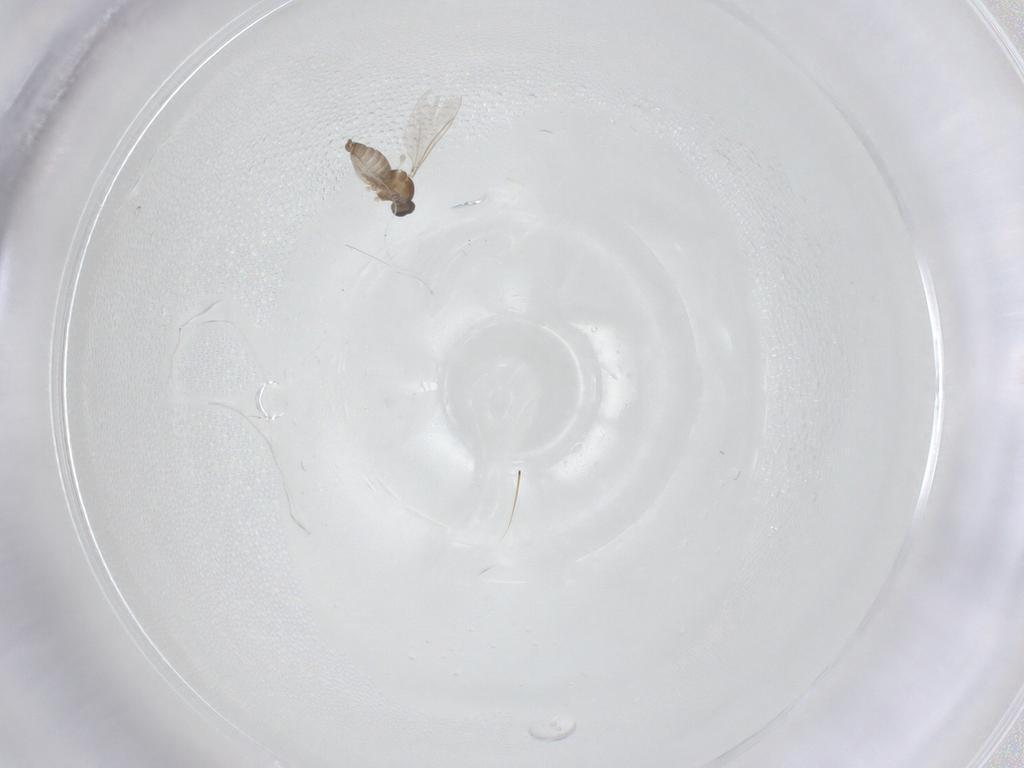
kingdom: Animalia
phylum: Arthropoda
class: Insecta
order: Diptera
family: Cecidomyiidae
